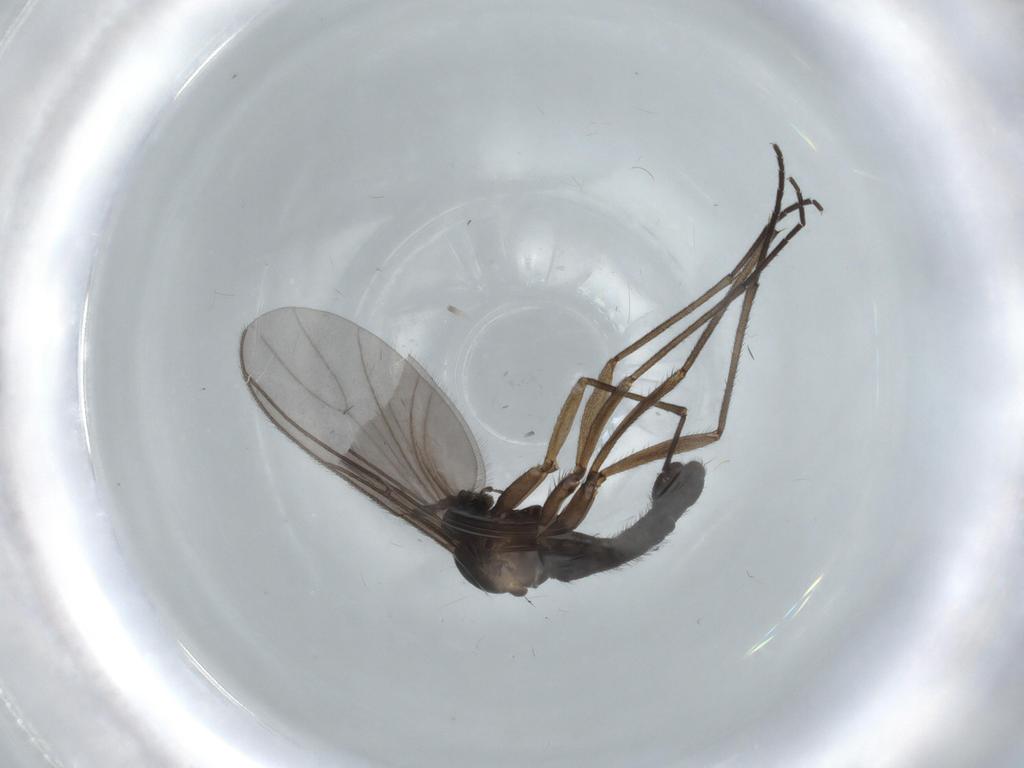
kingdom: Animalia
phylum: Arthropoda
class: Insecta
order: Diptera
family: Sciaridae
